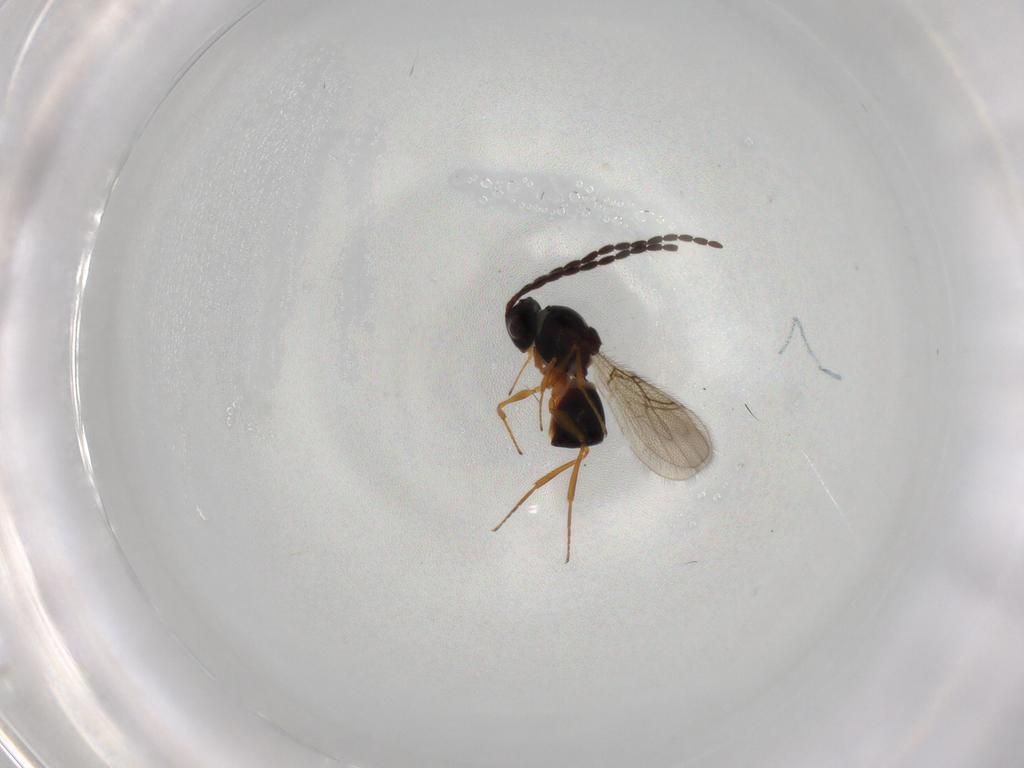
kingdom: Animalia
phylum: Arthropoda
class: Insecta
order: Hymenoptera
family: Figitidae
